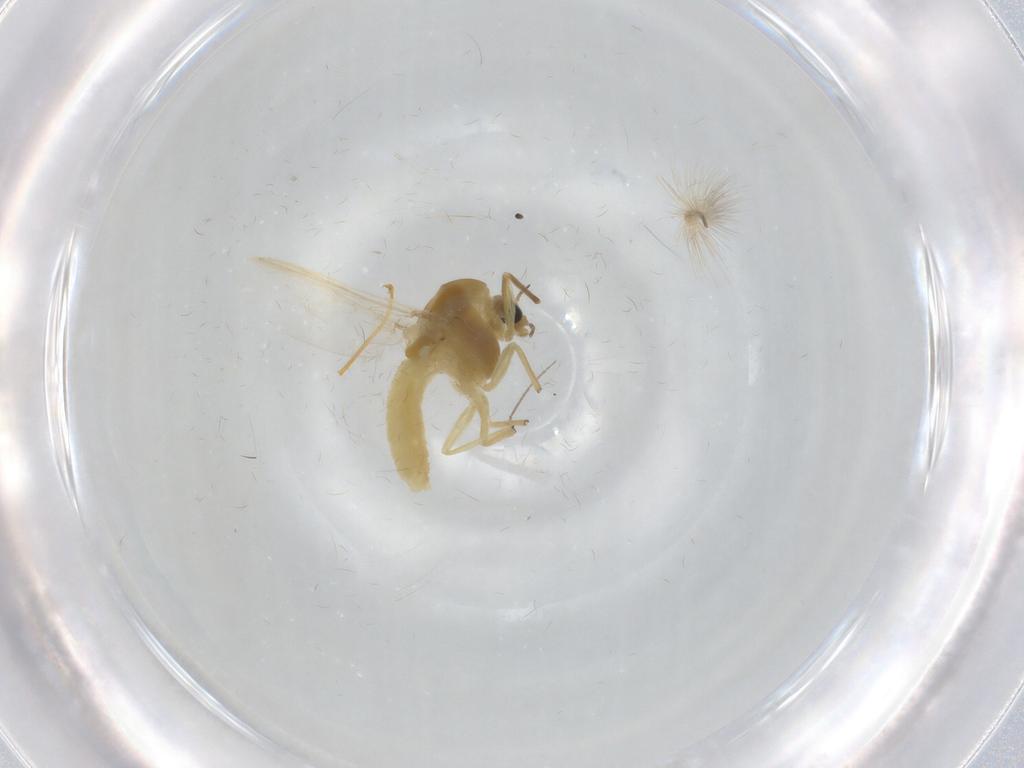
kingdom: Animalia
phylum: Arthropoda
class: Insecta
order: Diptera
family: Chironomidae
